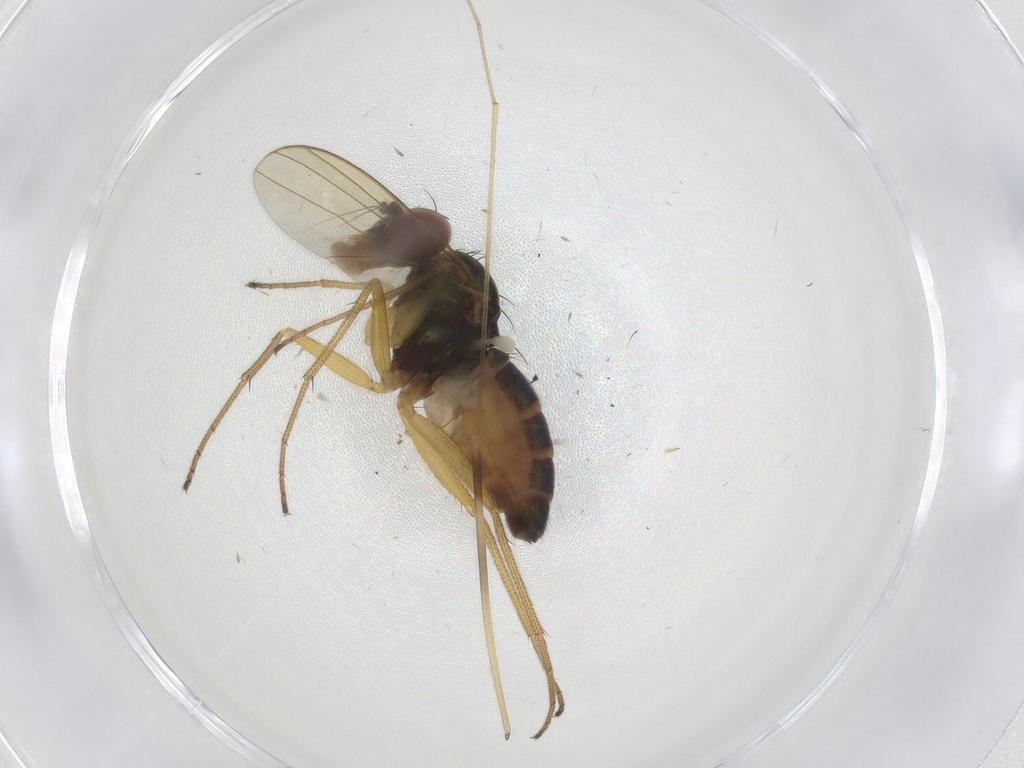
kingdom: Animalia
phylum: Arthropoda
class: Insecta
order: Diptera
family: Dolichopodidae
